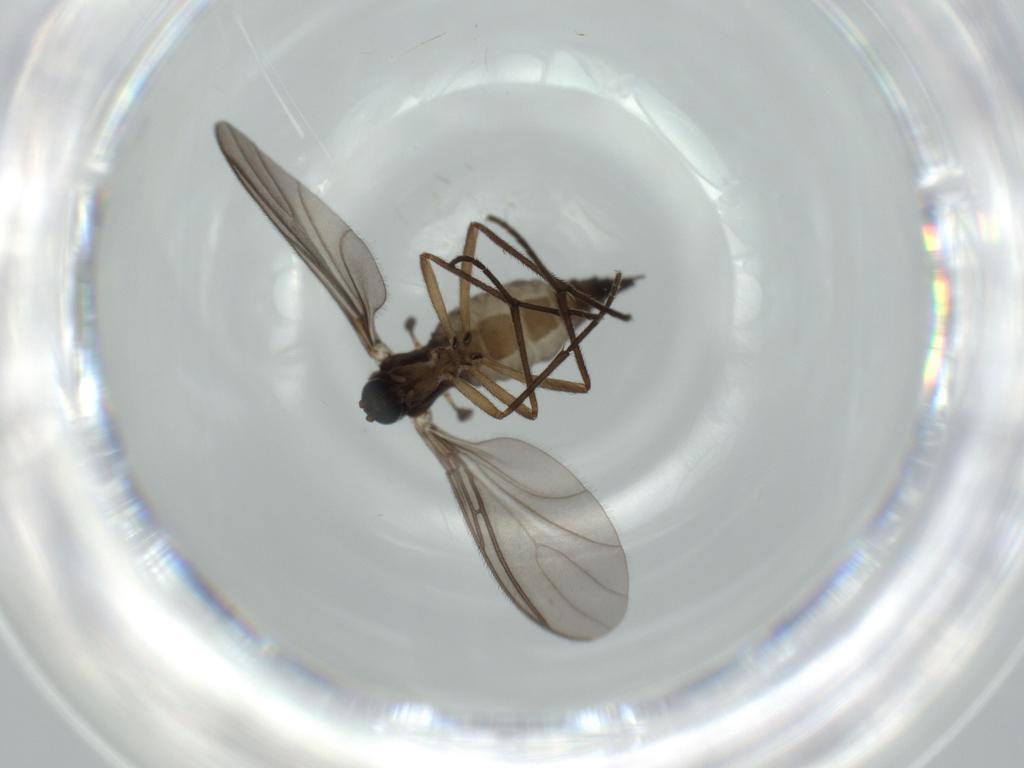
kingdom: Animalia
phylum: Arthropoda
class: Insecta
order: Diptera
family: Sciaridae
